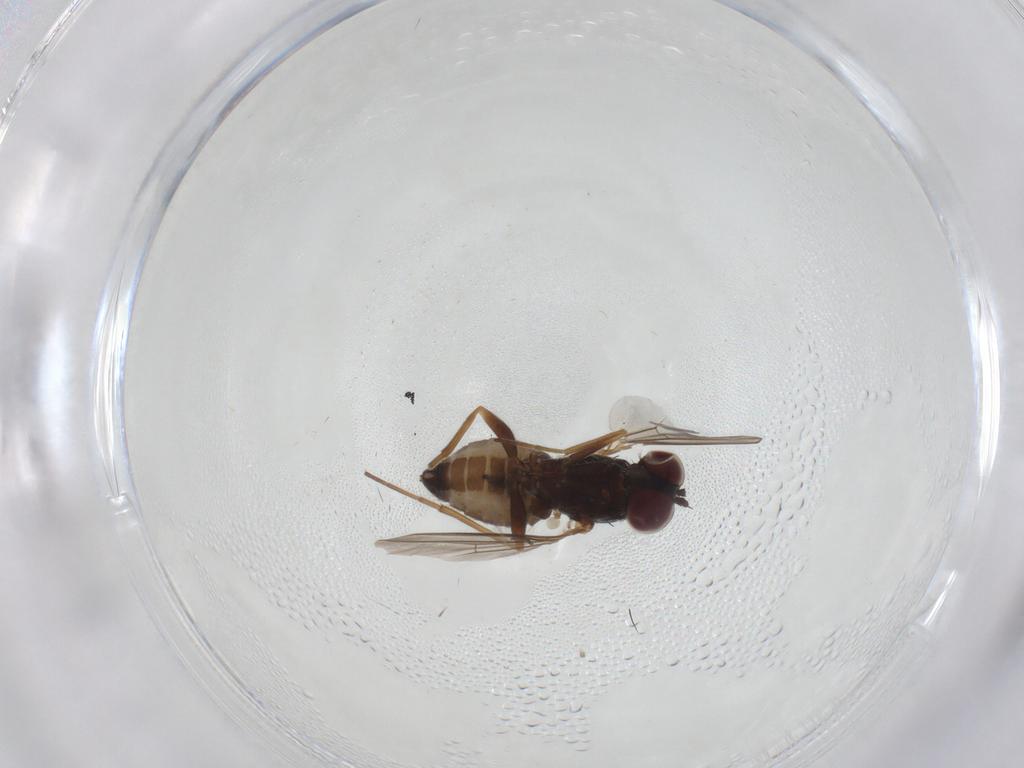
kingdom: Animalia
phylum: Arthropoda
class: Insecta
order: Diptera
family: Dolichopodidae
